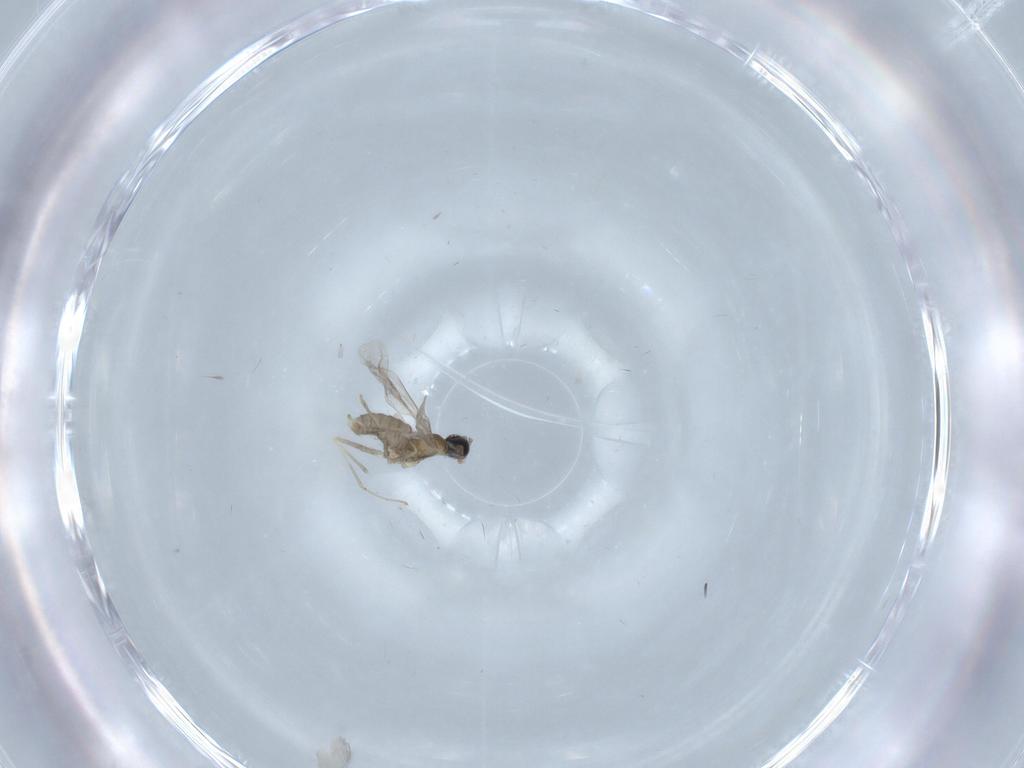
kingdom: Animalia
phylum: Arthropoda
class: Insecta
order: Diptera
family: Cecidomyiidae
